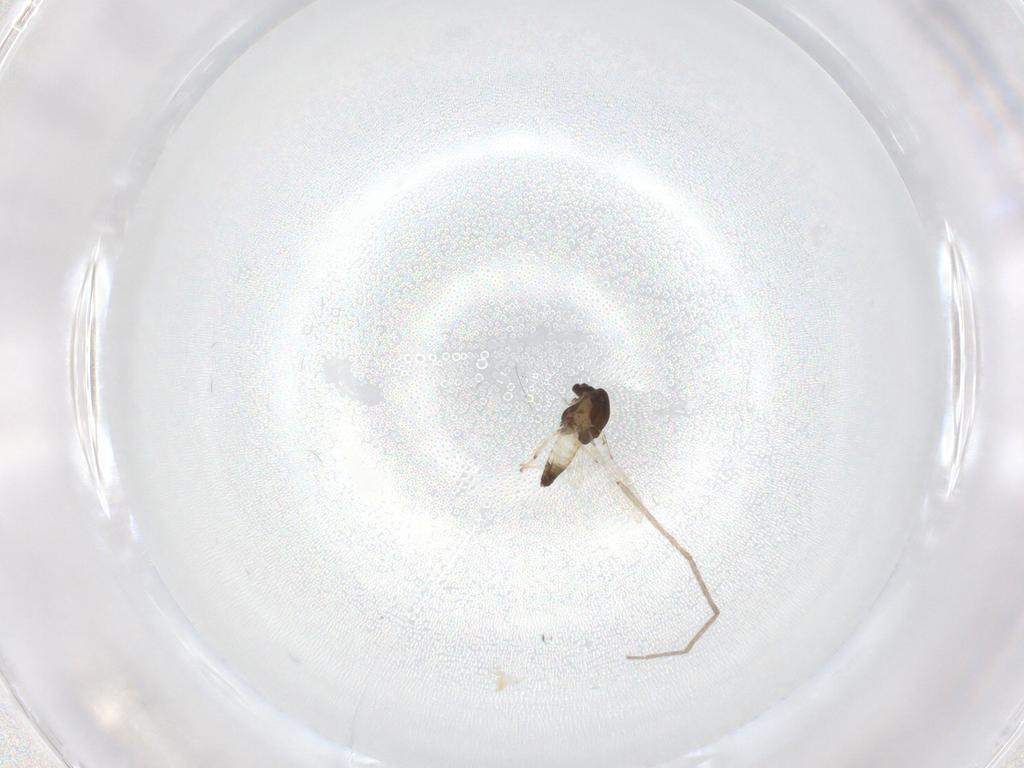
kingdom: Animalia
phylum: Arthropoda
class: Insecta
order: Diptera
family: Chironomidae
